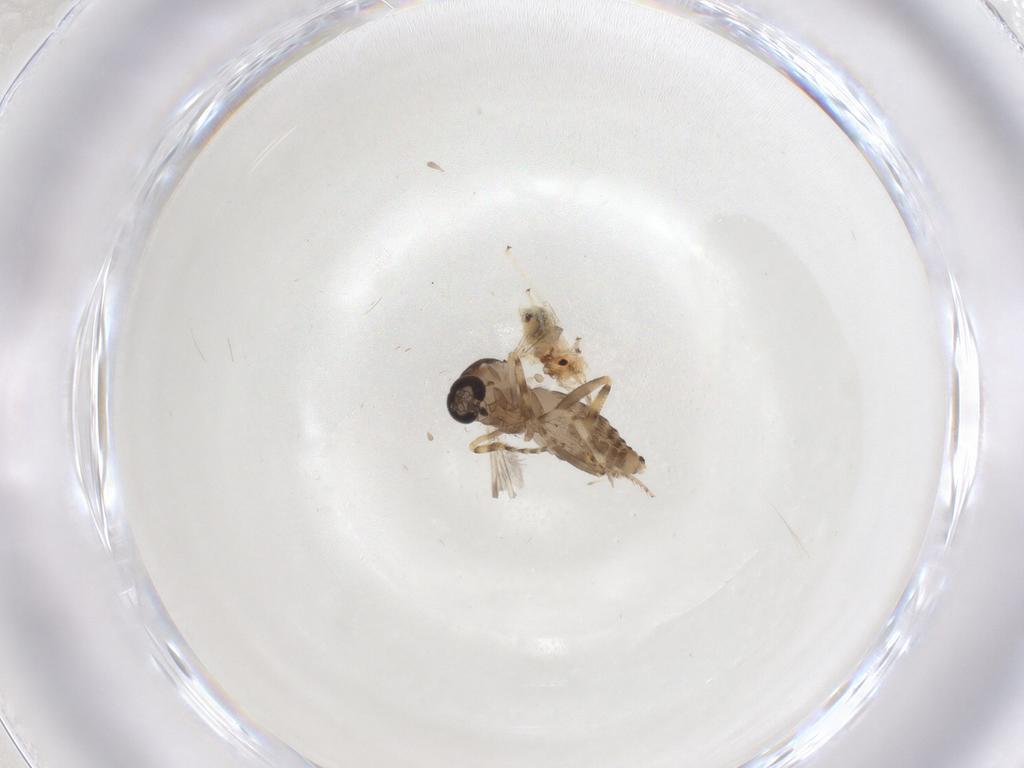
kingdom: Animalia
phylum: Arthropoda
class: Insecta
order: Diptera
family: Ceratopogonidae
